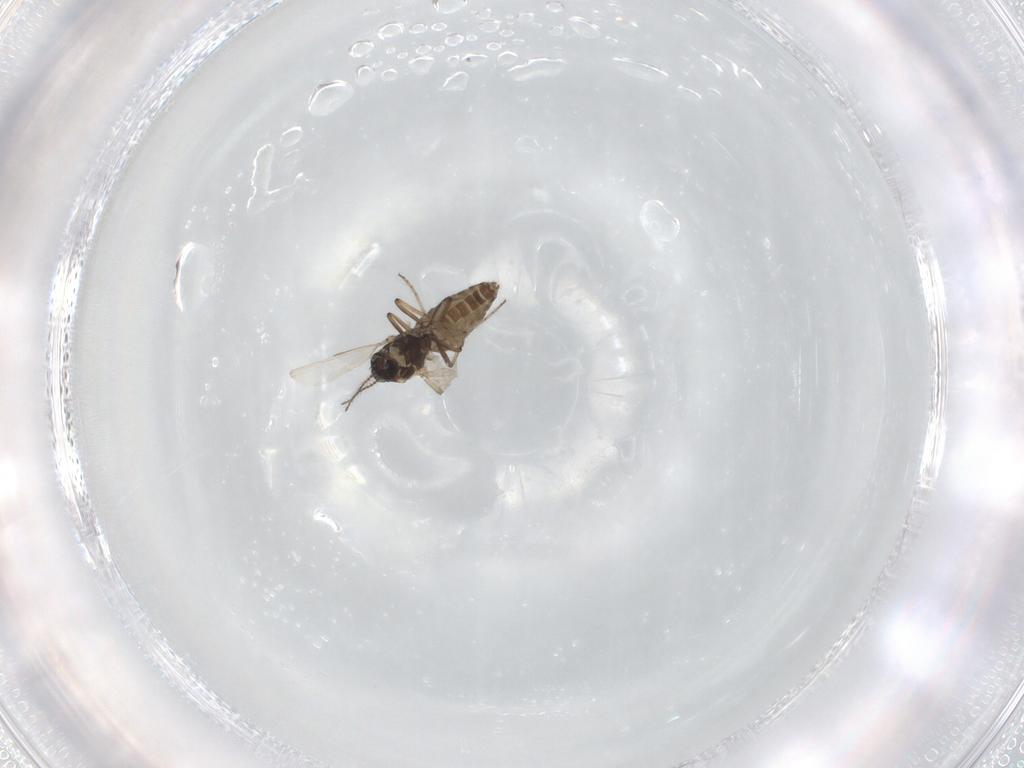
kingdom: Animalia
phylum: Arthropoda
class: Insecta
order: Diptera
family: Ceratopogonidae
